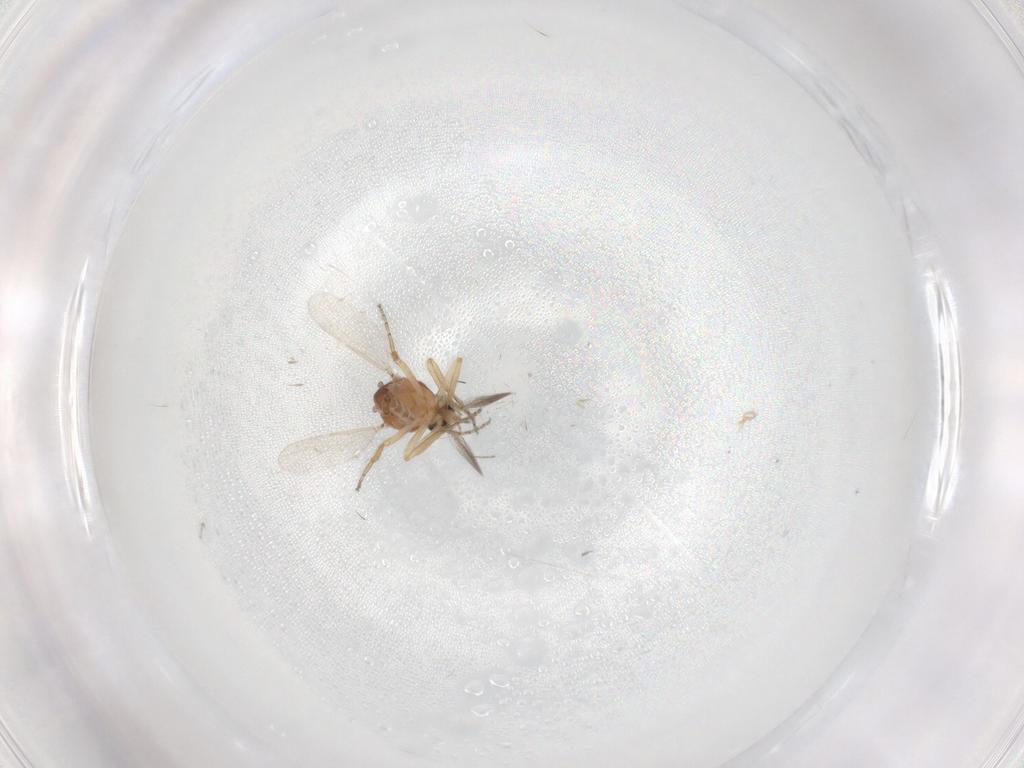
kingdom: Animalia
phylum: Arthropoda
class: Insecta
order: Diptera
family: Ceratopogonidae
